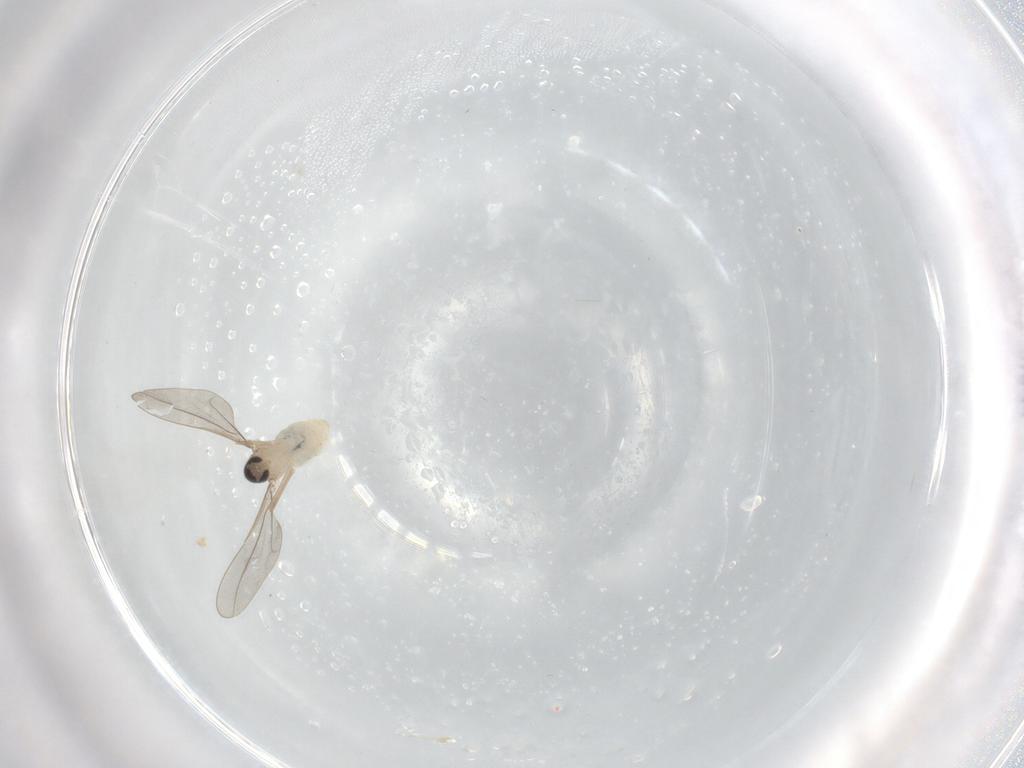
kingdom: Animalia
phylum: Arthropoda
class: Insecta
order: Diptera
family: Cecidomyiidae
